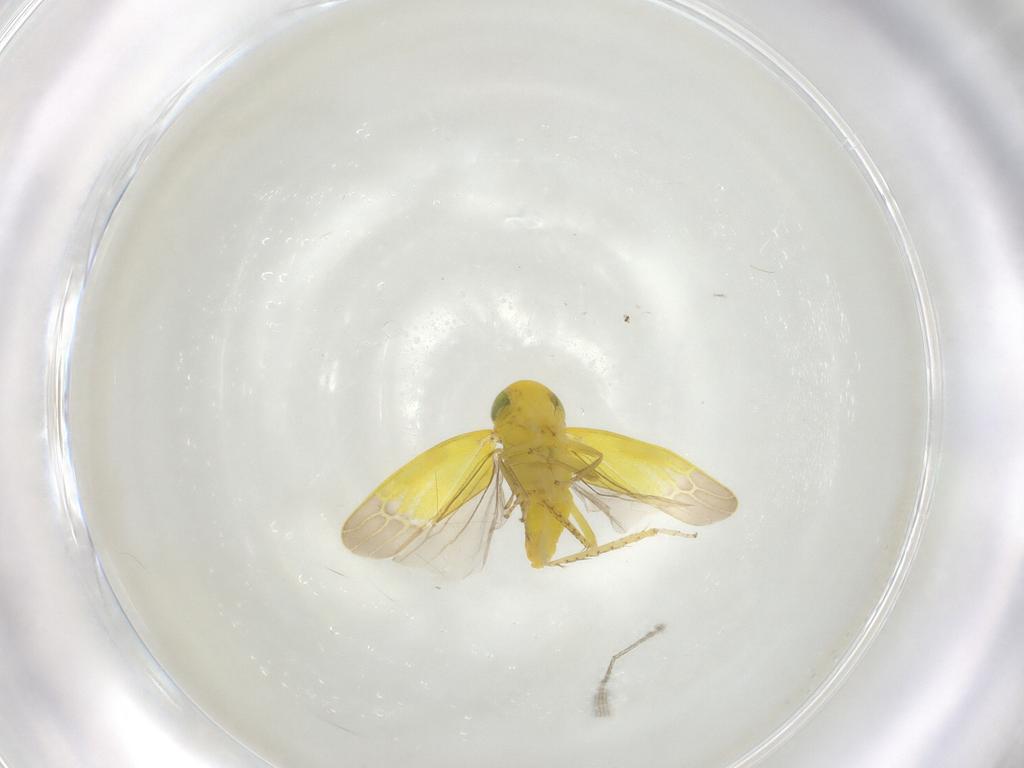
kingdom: Animalia
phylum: Arthropoda
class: Insecta
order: Hemiptera
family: Cicadellidae
